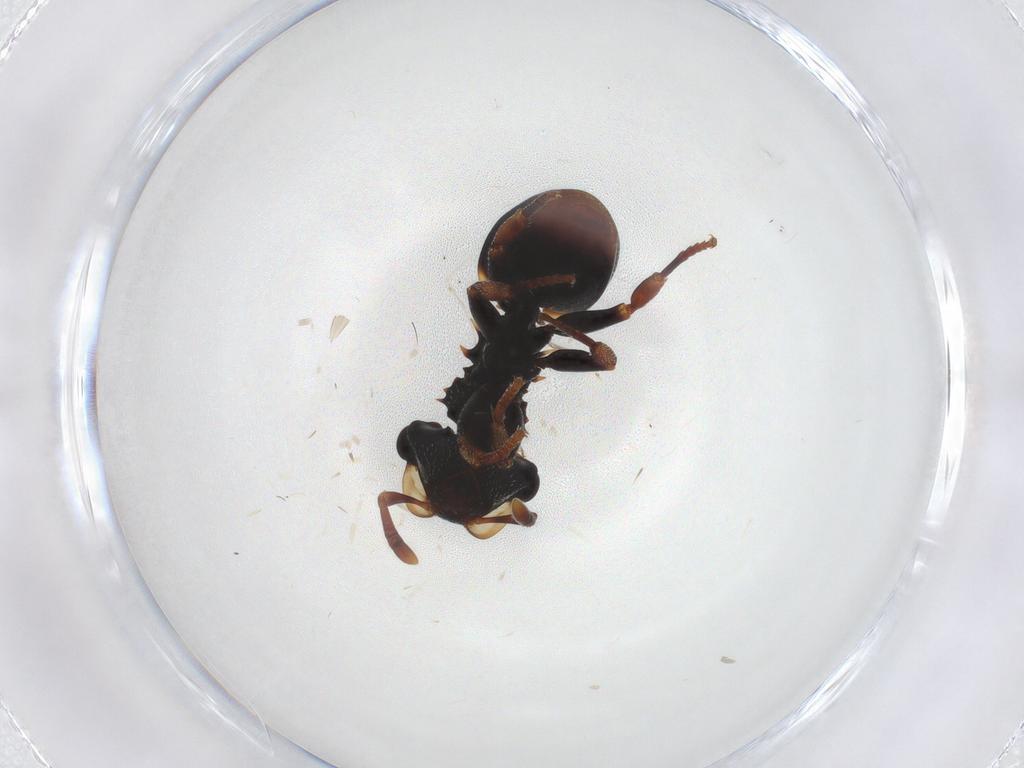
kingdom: Animalia
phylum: Arthropoda
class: Insecta
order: Hymenoptera
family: Formicidae
